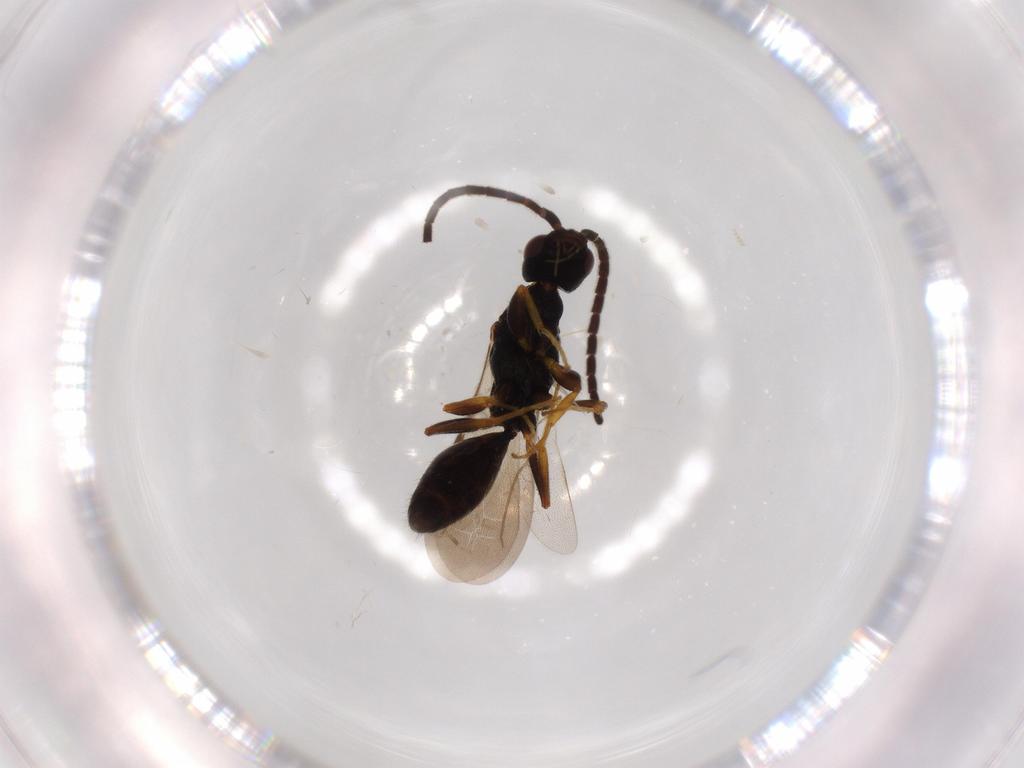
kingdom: Animalia
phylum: Arthropoda
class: Insecta
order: Hymenoptera
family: Bethylidae
